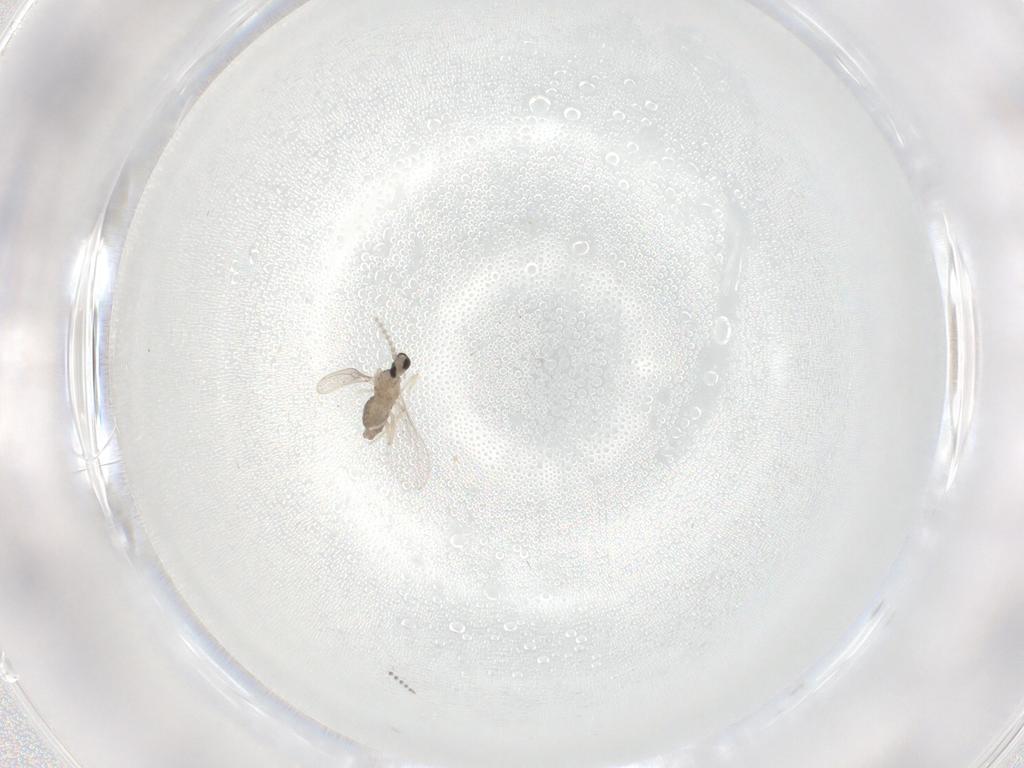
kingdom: Animalia
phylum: Arthropoda
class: Insecta
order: Diptera
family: Cecidomyiidae
